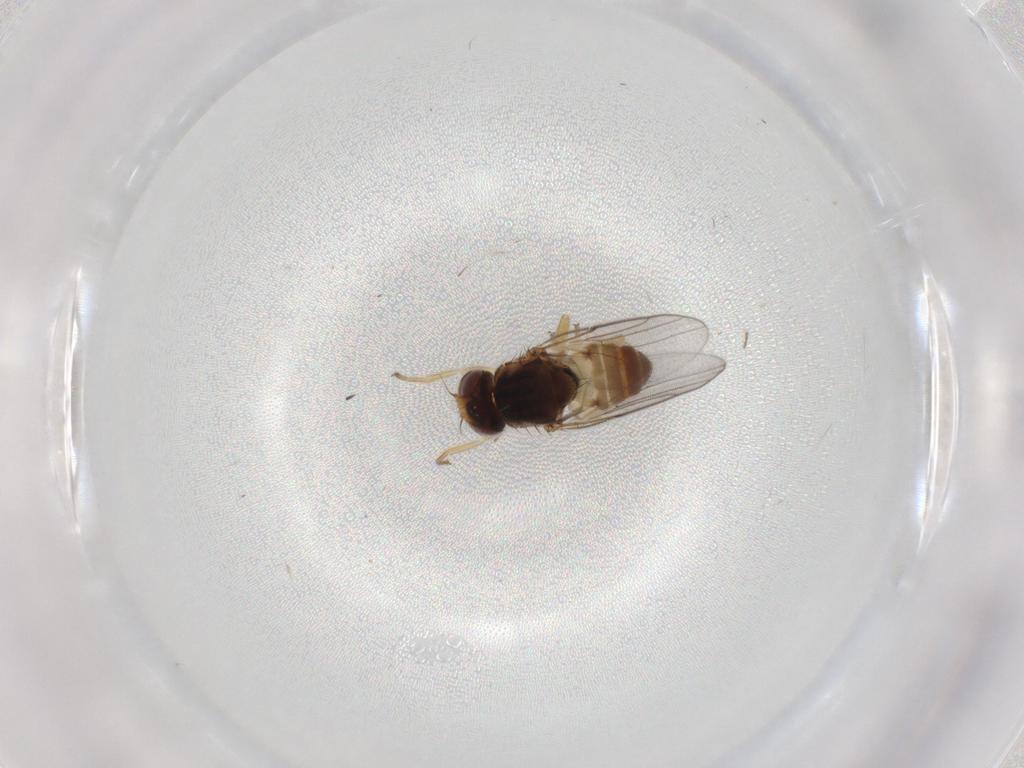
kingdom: Animalia
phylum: Arthropoda
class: Insecta
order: Diptera
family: Chloropidae
